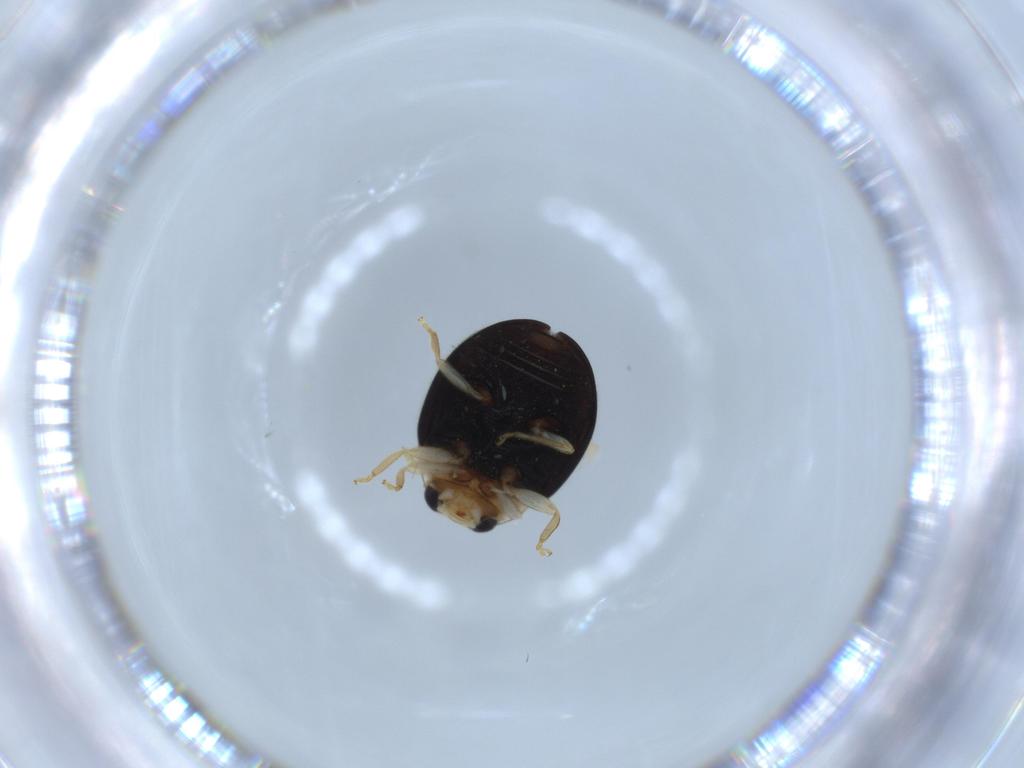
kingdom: Animalia
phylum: Arthropoda
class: Insecta
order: Coleoptera
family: Coccinellidae
